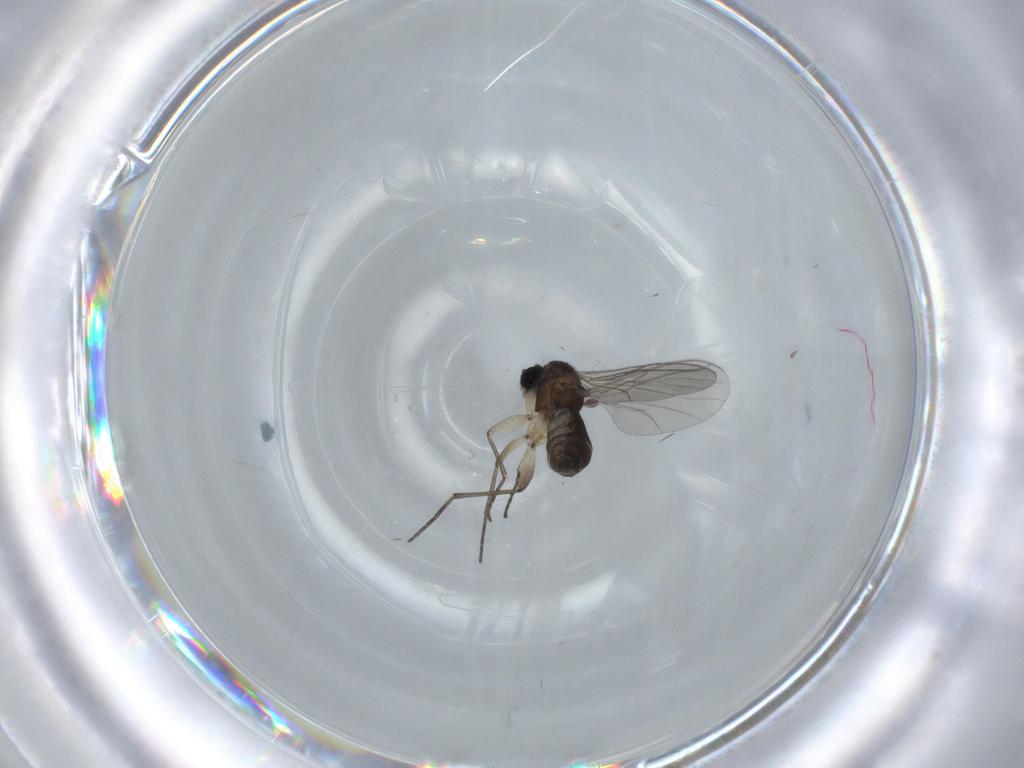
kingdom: Animalia
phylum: Arthropoda
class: Insecta
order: Diptera
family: Sciaridae
